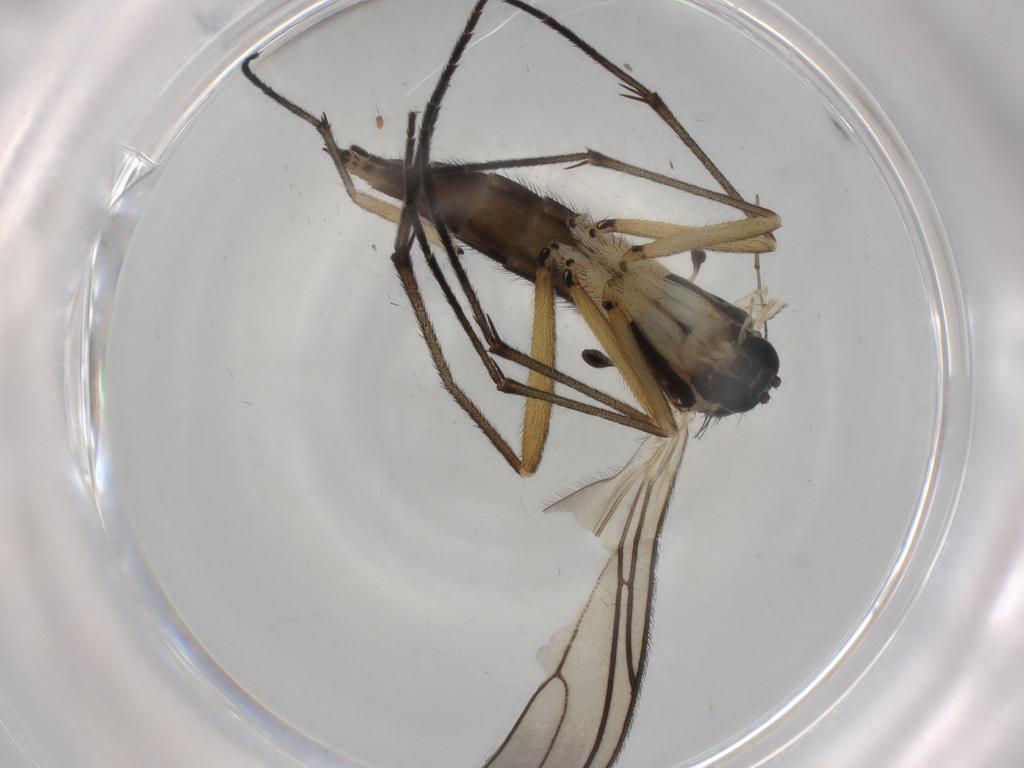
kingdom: Animalia
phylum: Arthropoda
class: Insecta
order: Diptera
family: Sciaridae
